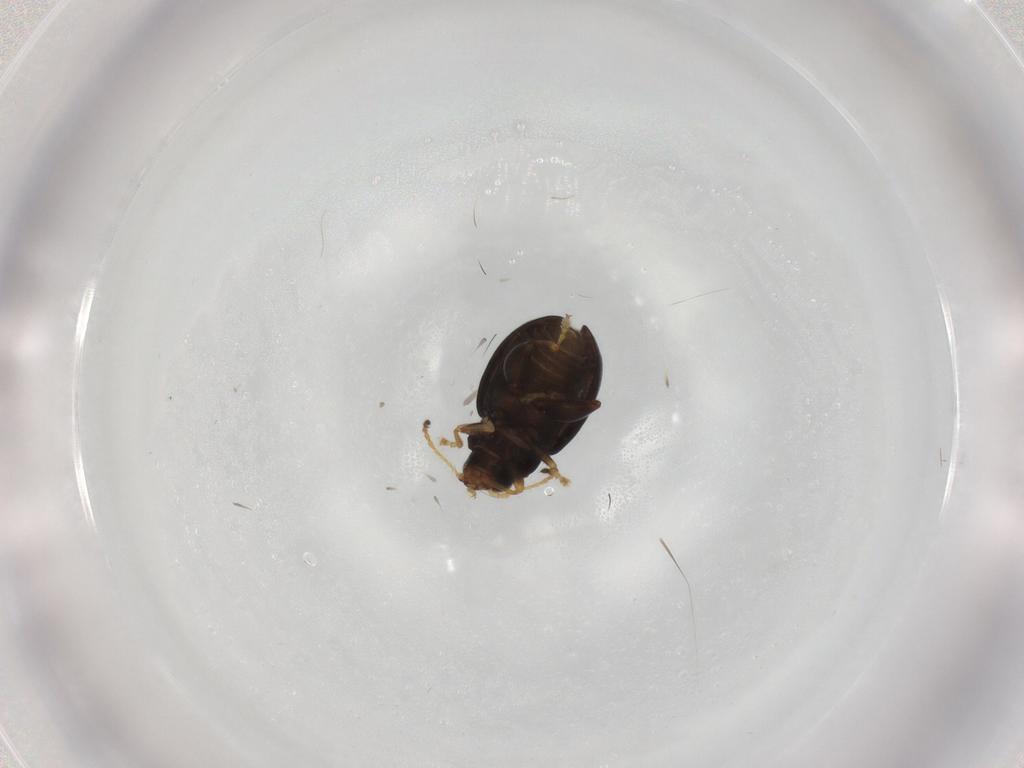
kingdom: Animalia
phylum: Arthropoda
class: Insecta
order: Coleoptera
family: Chrysomelidae
